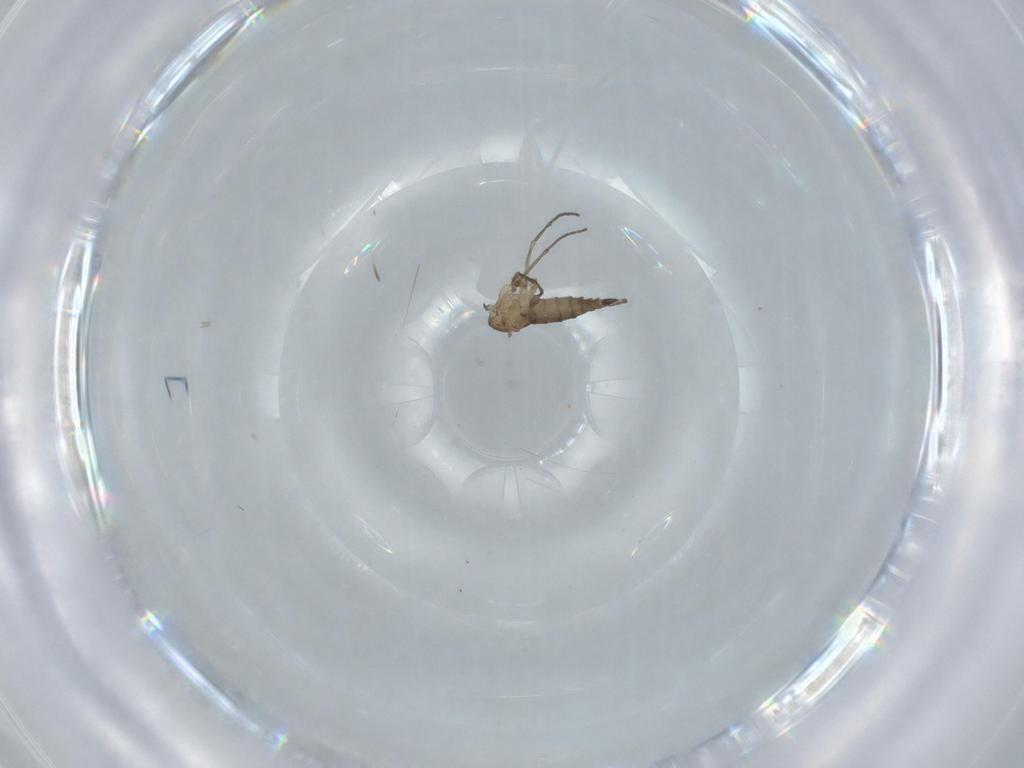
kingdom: Animalia
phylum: Arthropoda
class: Insecta
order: Diptera
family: Sciaridae
